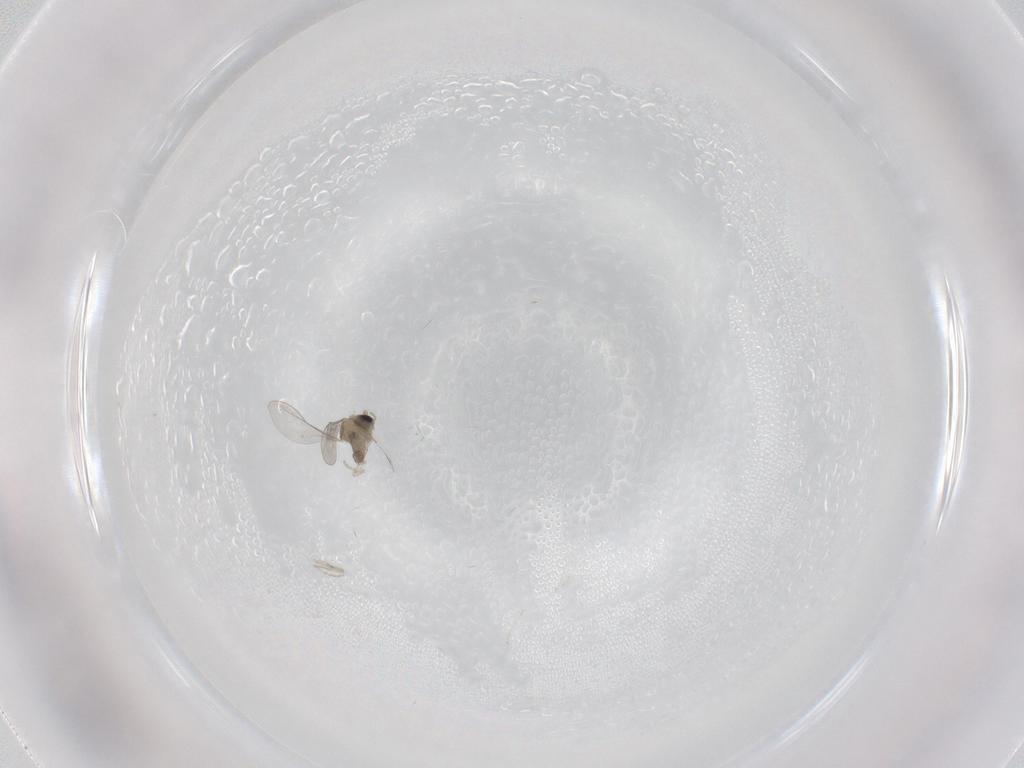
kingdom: Animalia
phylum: Arthropoda
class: Insecta
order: Diptera
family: Cecidomyiidae
